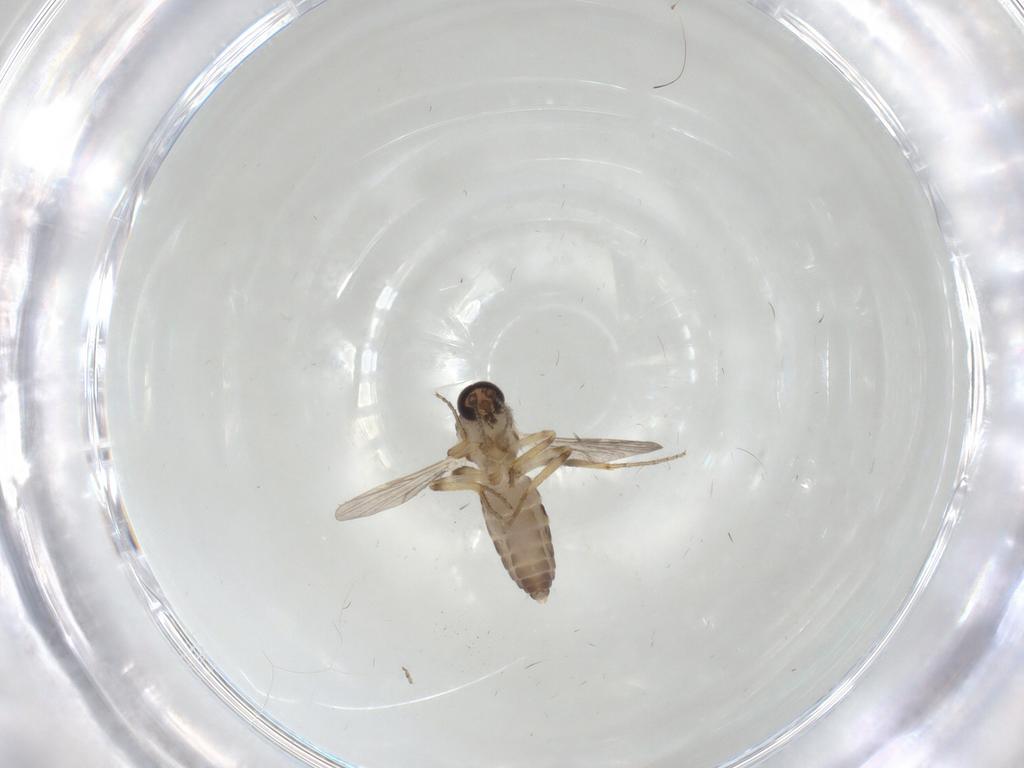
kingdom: Animalia
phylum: Arthropoda
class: Insecta
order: Diptera
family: Ceratopogonidae
